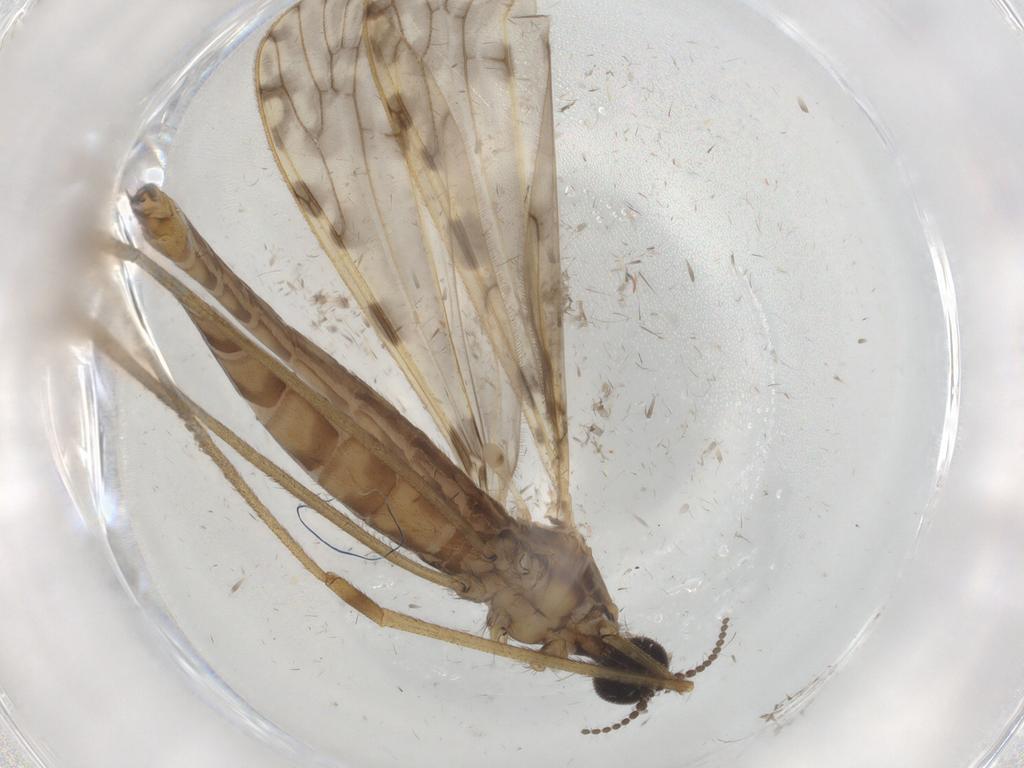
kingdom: Animalia
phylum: Arthropoda
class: Insecta
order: Diptera
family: Limoniidae
